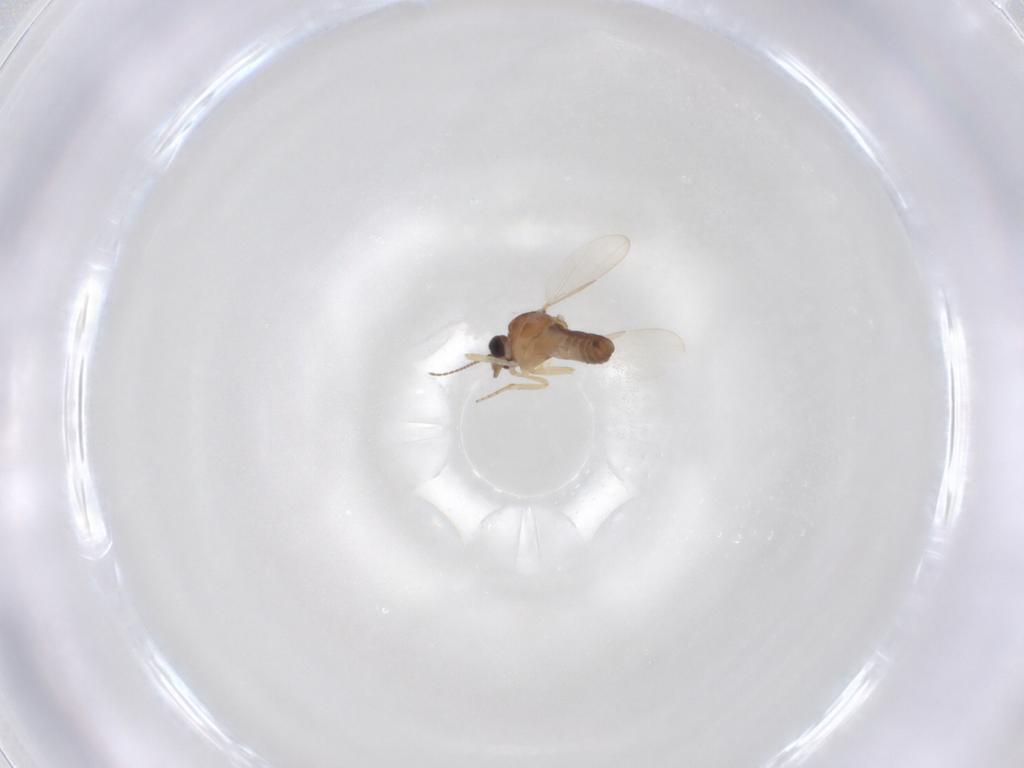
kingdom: Animalia
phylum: Arthropoda
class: Insecta
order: Diptera
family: Ceratopogonidae
